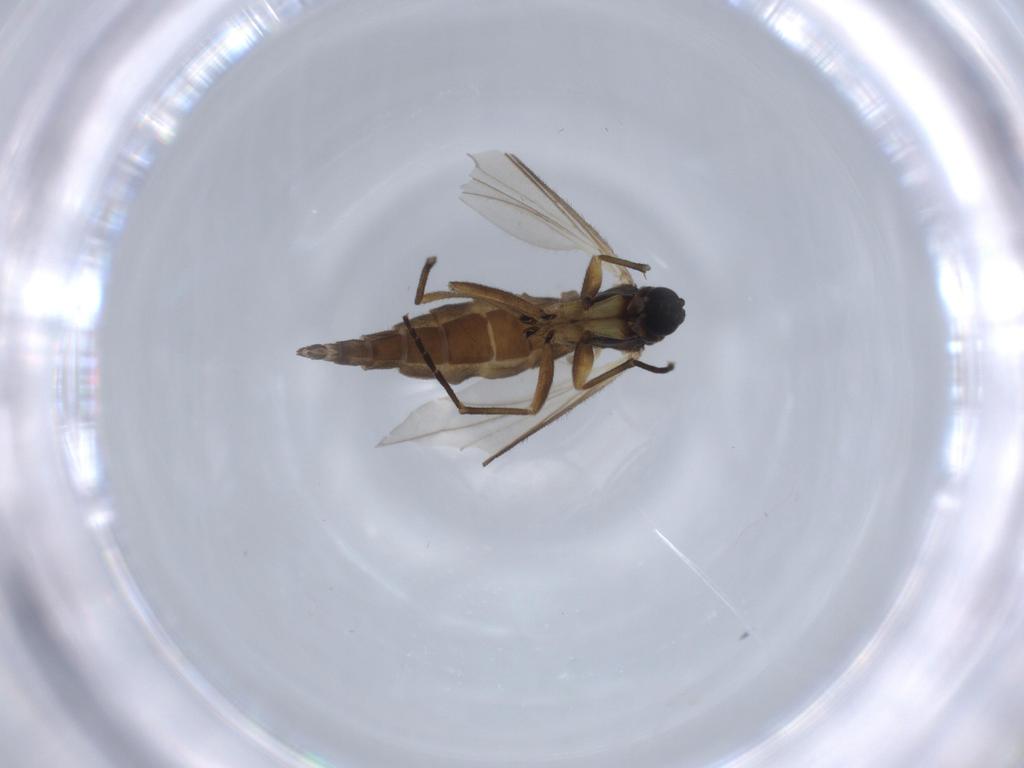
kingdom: Animalia
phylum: Arthropoda
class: Insecta
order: Diptera
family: Sciaridae
